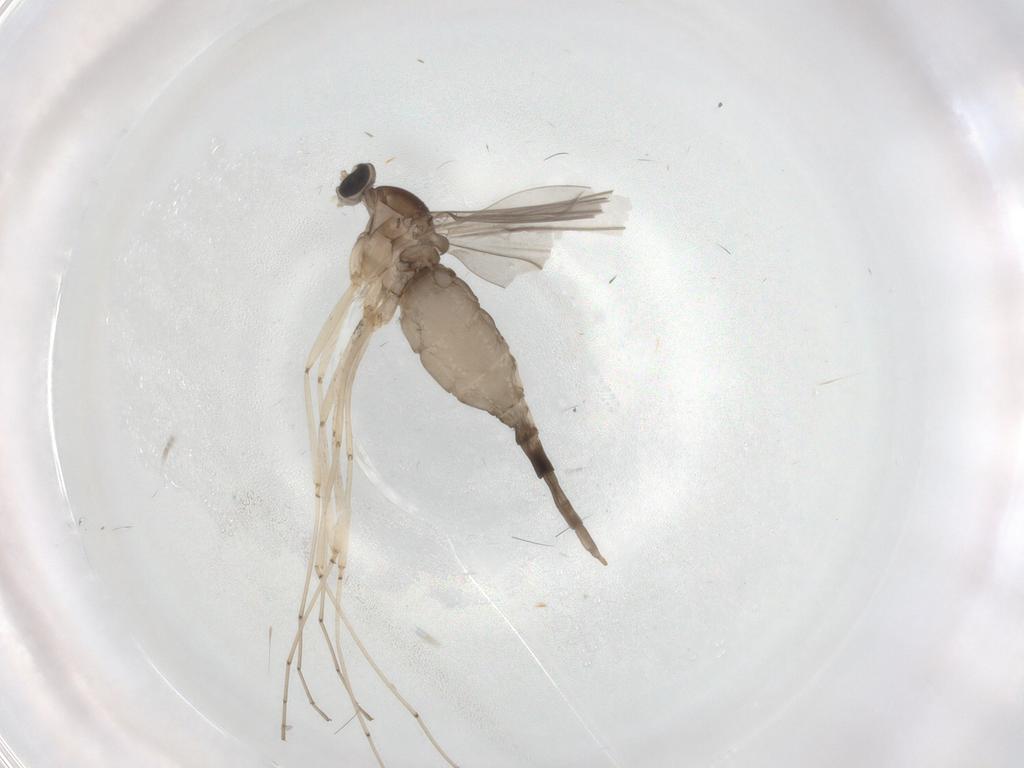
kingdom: Animalia
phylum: Arthropoda
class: Insecta
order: Diptera
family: Cecidomyiidae
